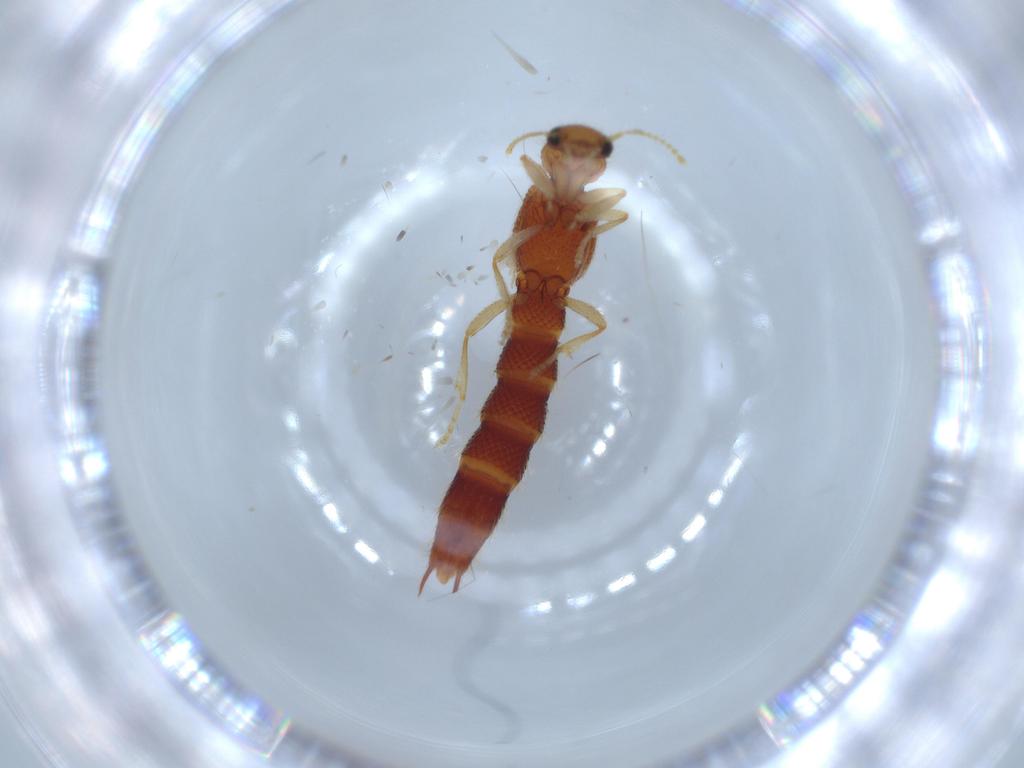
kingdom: Animalia
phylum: Arthropoda
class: Insecta
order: Coleoptera
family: Staphylinidae
